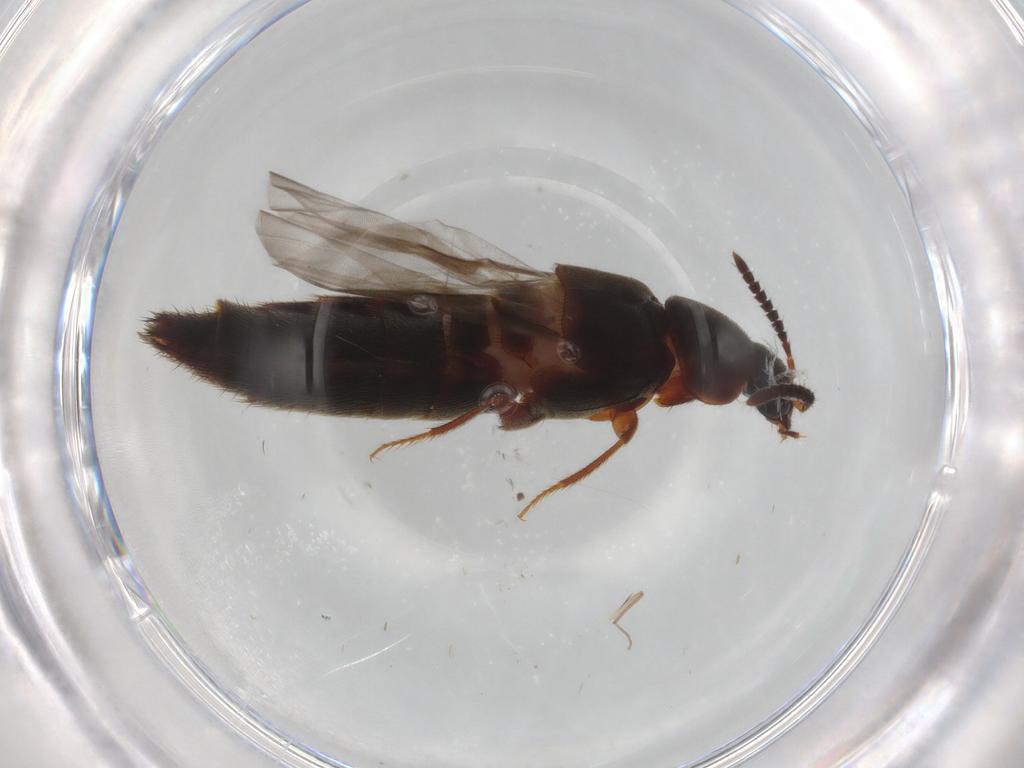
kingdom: Animalia
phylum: Arthropoda
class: Insecta
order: Coleoptera
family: Staphylinidae
